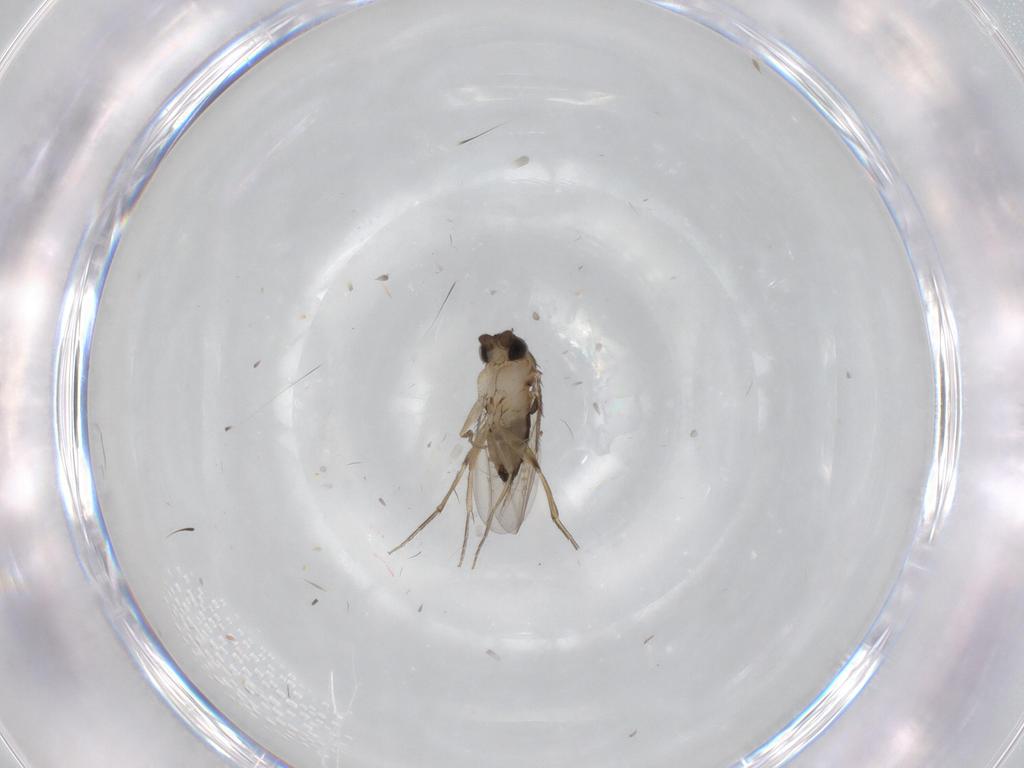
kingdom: Animalia
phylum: Arthropoda
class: Insecta
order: Diptera
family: Phoridae
